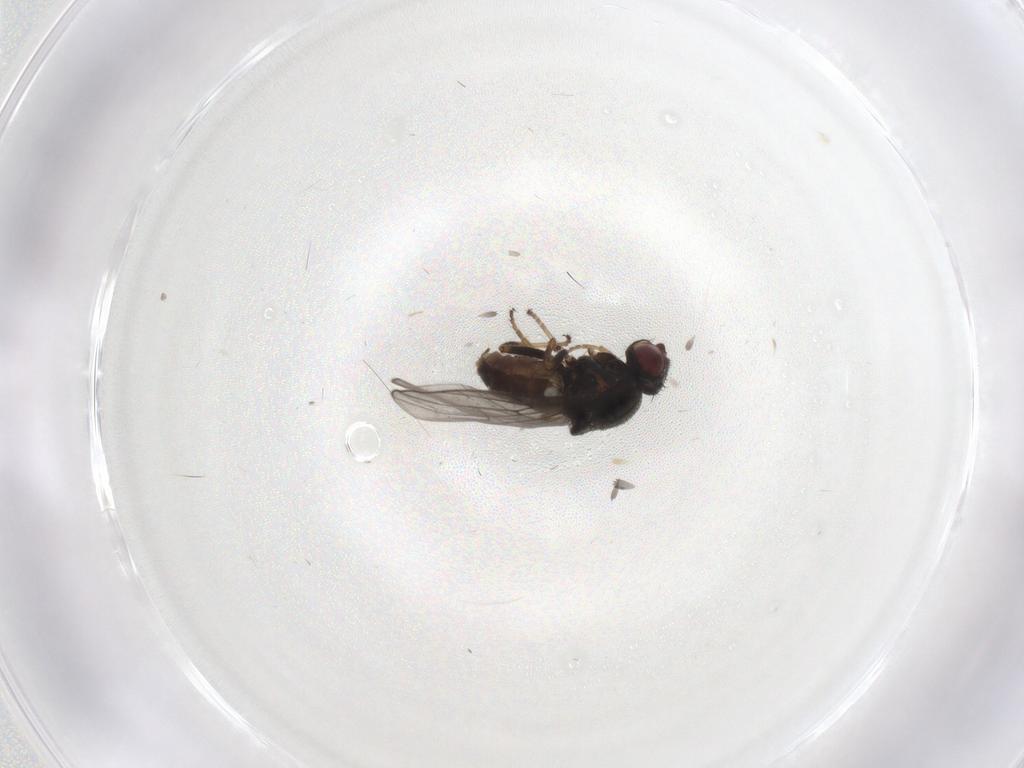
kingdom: Animalia
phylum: Arthropoda
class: Insecta
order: Diptera
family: Chloropidae
